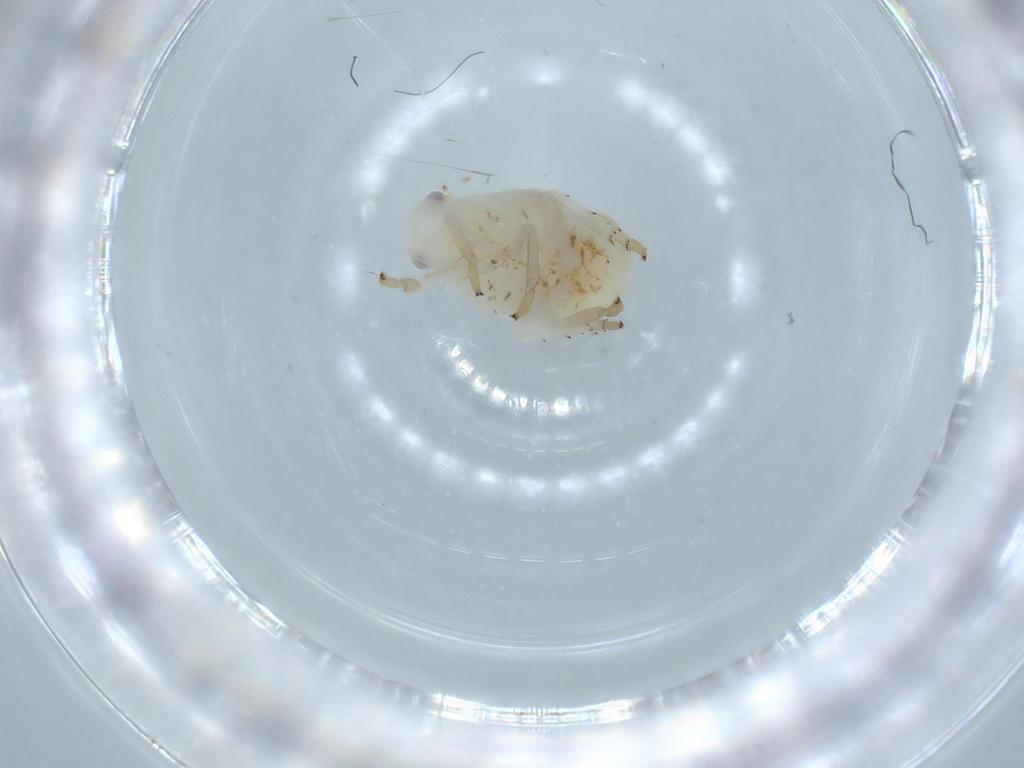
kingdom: Animalia
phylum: Arthropoda
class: Insecta
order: Hemiptera
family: Flatidae
